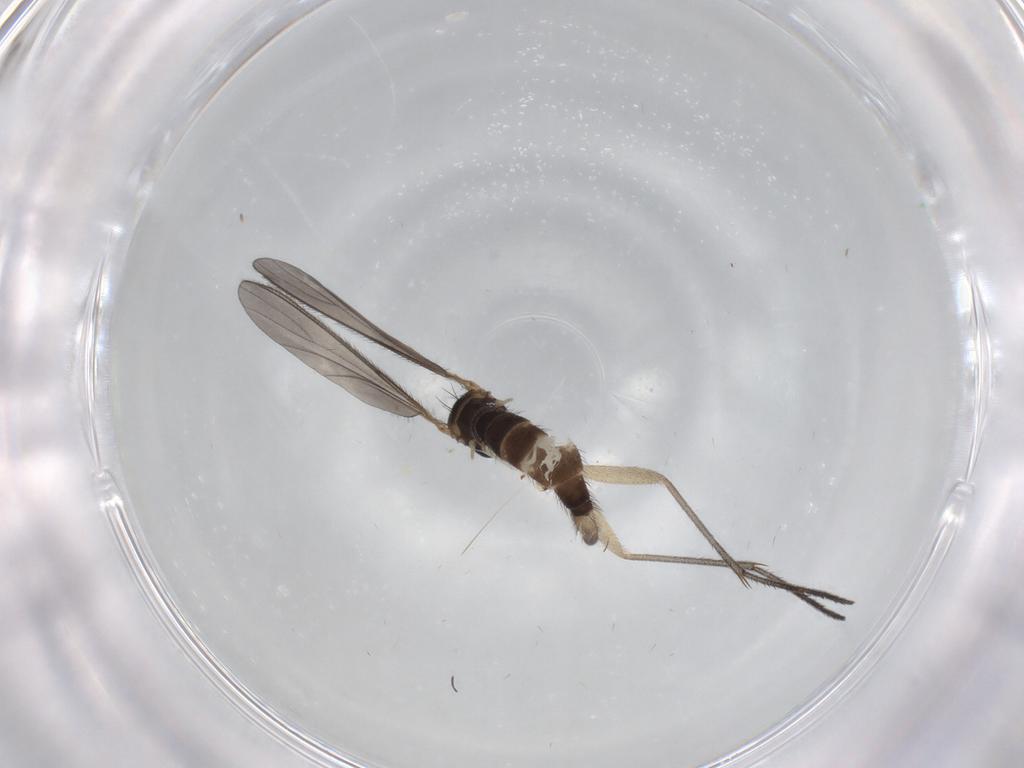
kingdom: Animalia
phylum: Arthropoda
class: Insecta
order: Diptera
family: Sciaridae
